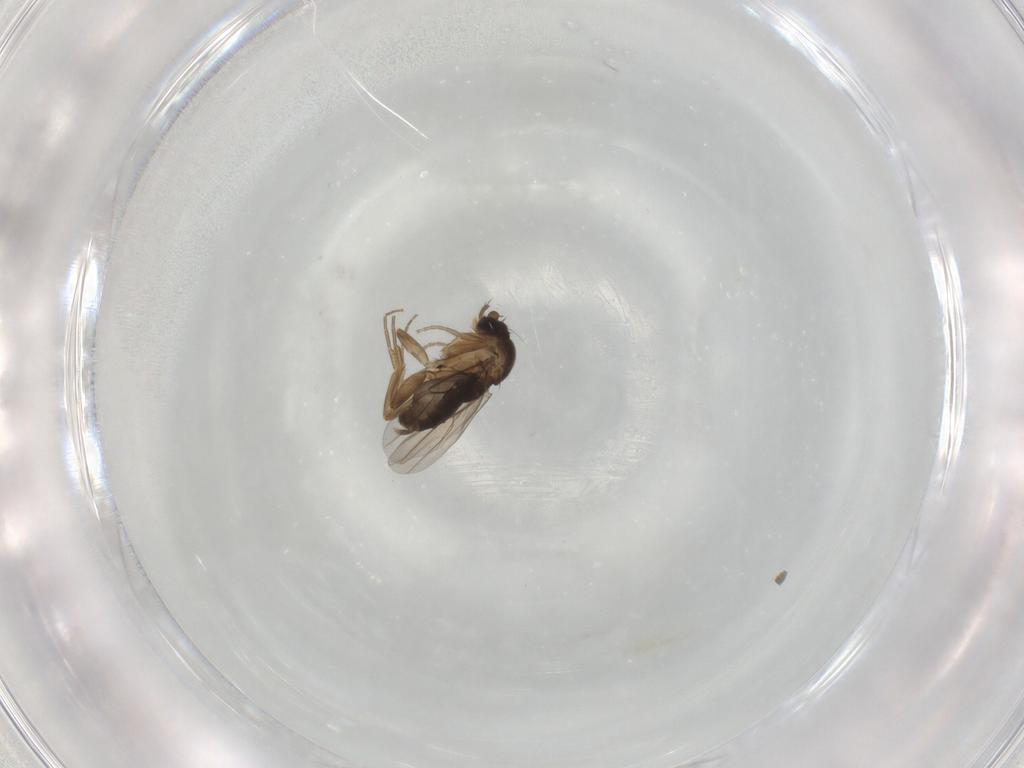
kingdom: Animalia
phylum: Arthropoda
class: Insecta
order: Diptera
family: Phoridae
